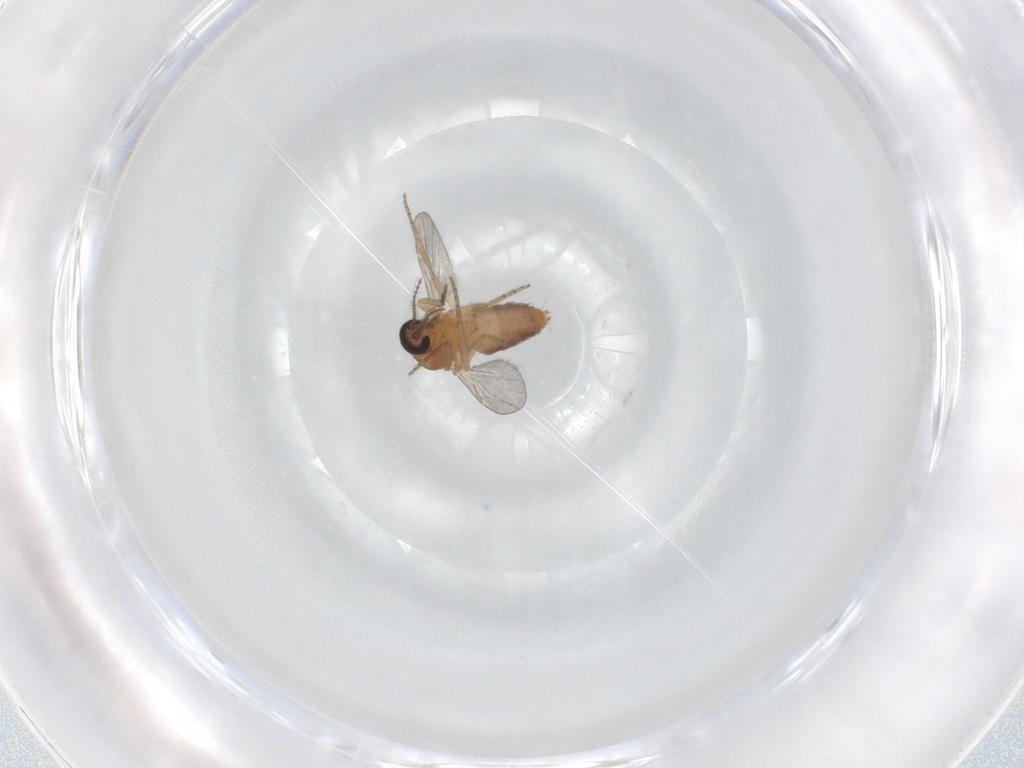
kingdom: Animalia
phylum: Arthropoda
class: Insecta
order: Diptera
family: Ceratopogonidae
